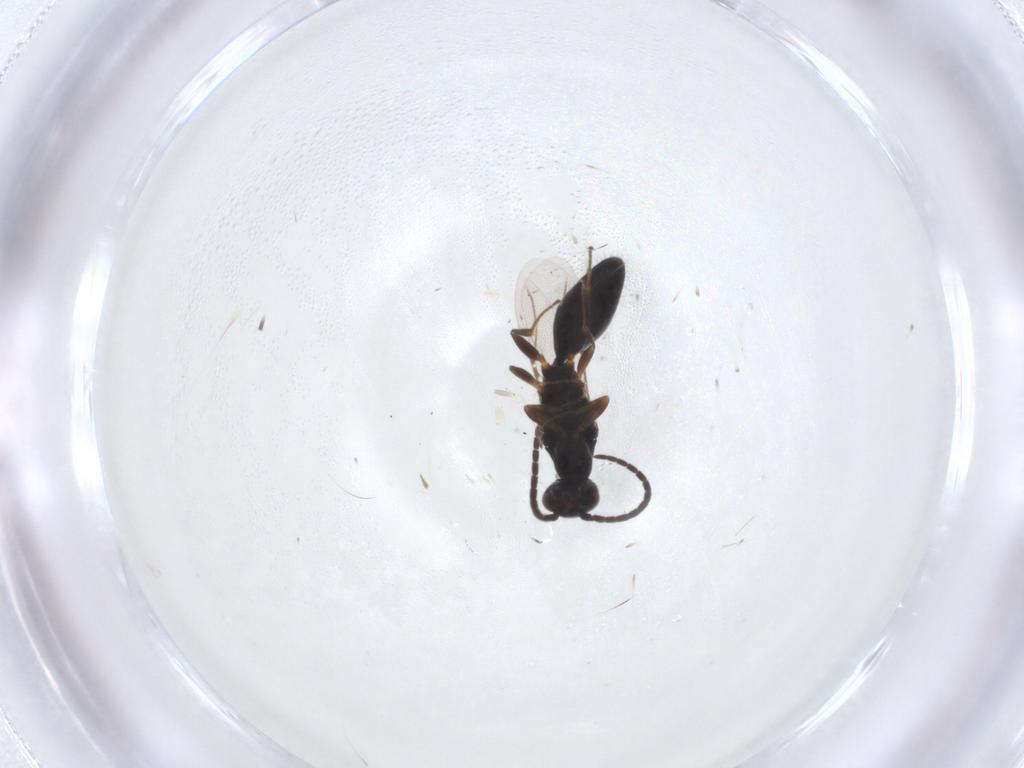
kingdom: Animalia
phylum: Arthropoda
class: Insecta
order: Hymenoptera
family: Bethylidae
